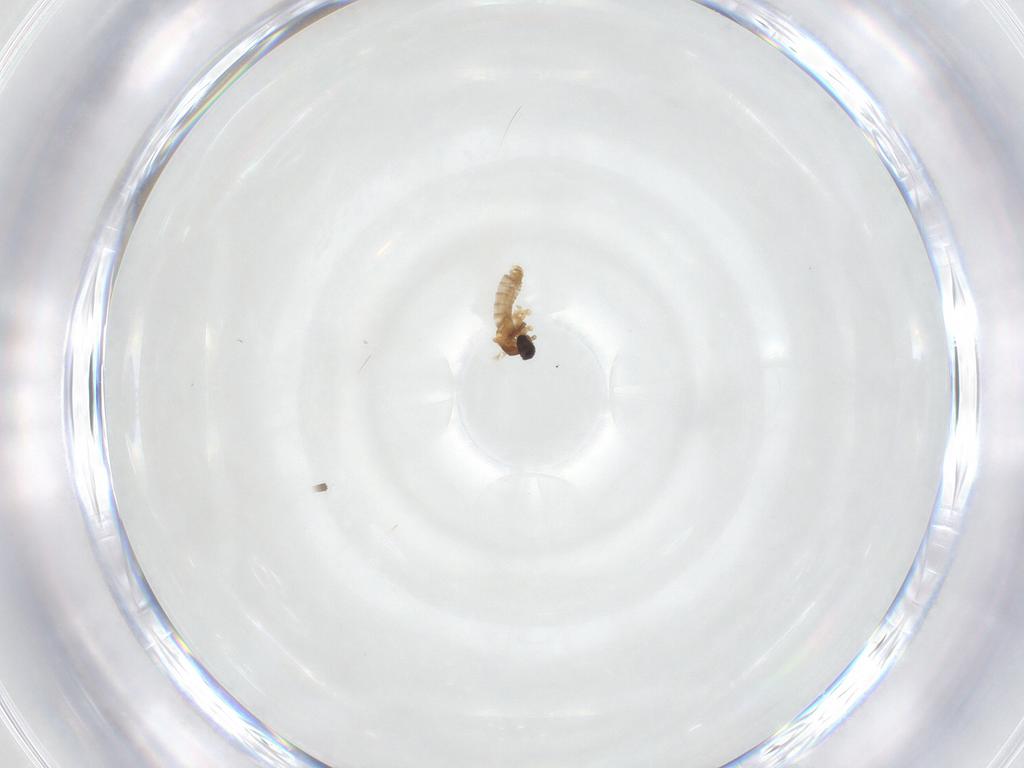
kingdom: Animalia
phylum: Arthropoda
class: Insecta
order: Diptera
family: Cecidomyiidae
